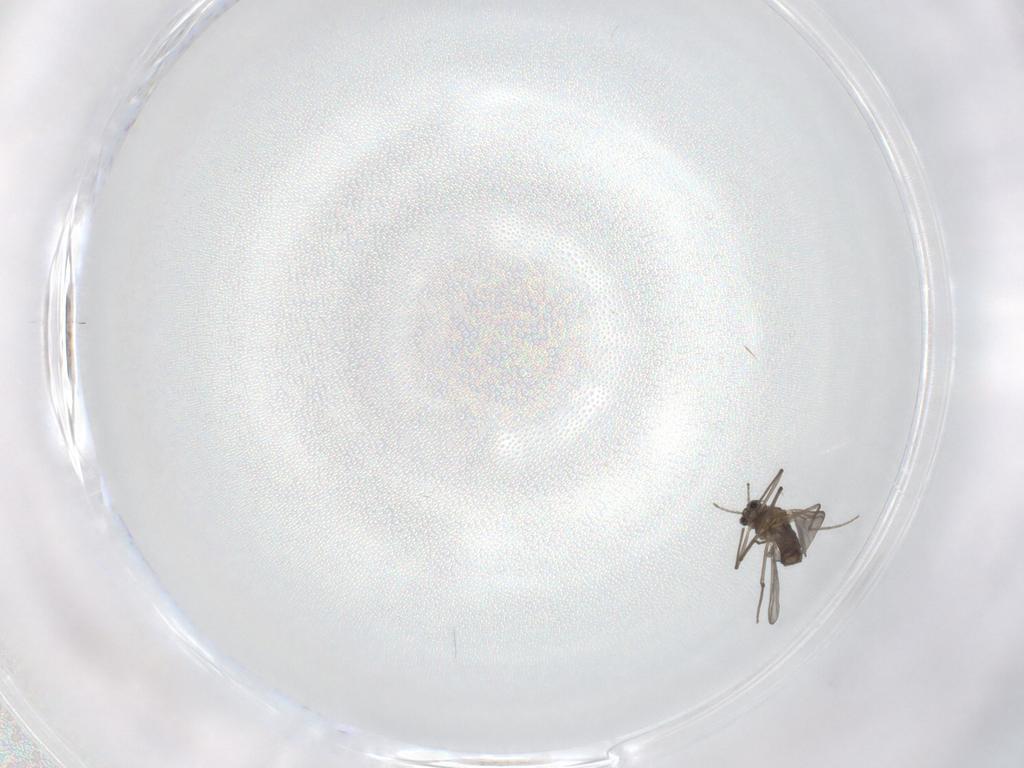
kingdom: Animalia
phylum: Arthropoda
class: Insecta
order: Diptera
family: Chironomidae
